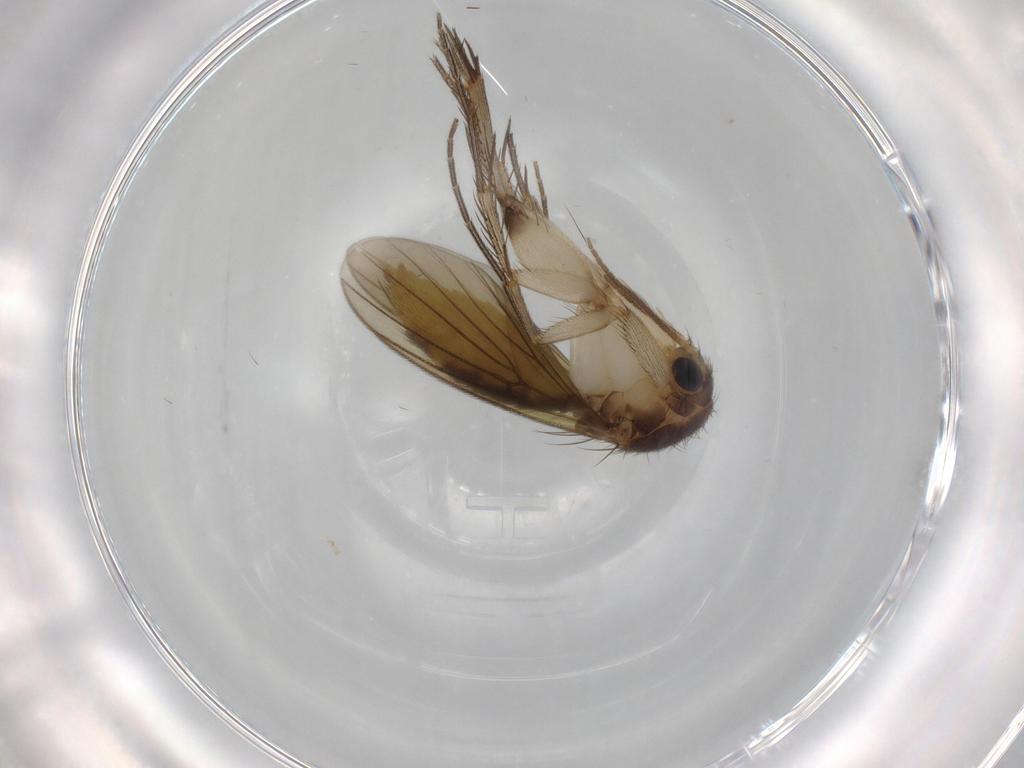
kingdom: Animalia
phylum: Arthropoda
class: Insecta
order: Diptera
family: Mycetophilidae
